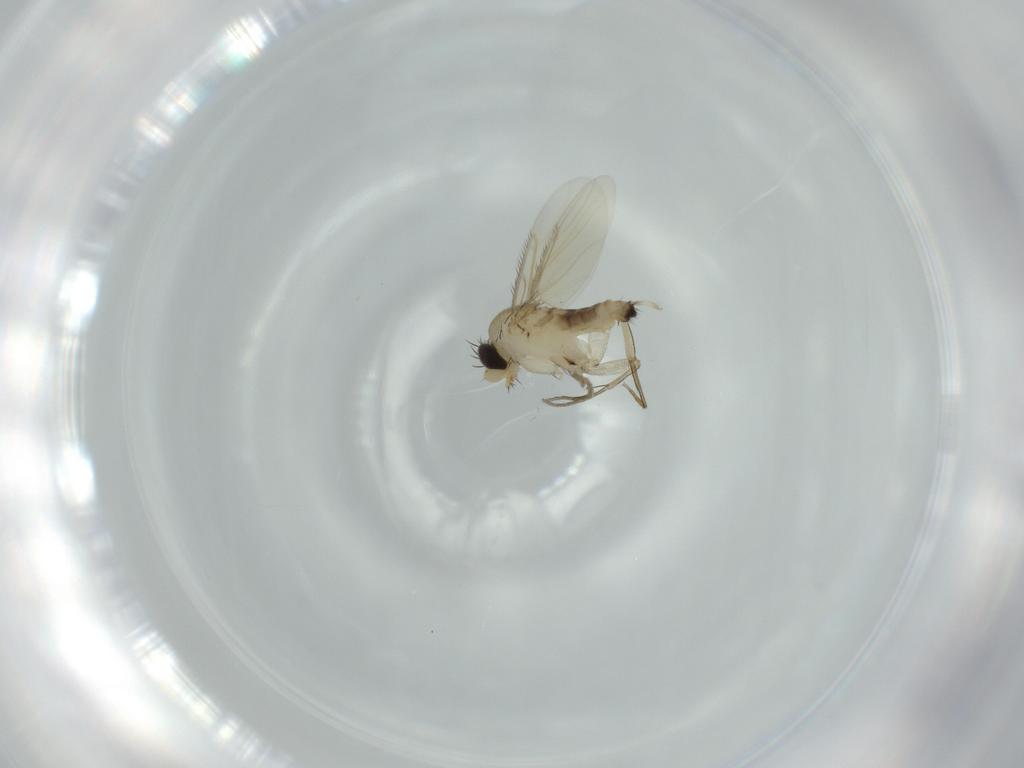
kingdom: Animalia
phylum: Arthropoda
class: Insecta
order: Diptera
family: Phoridae
